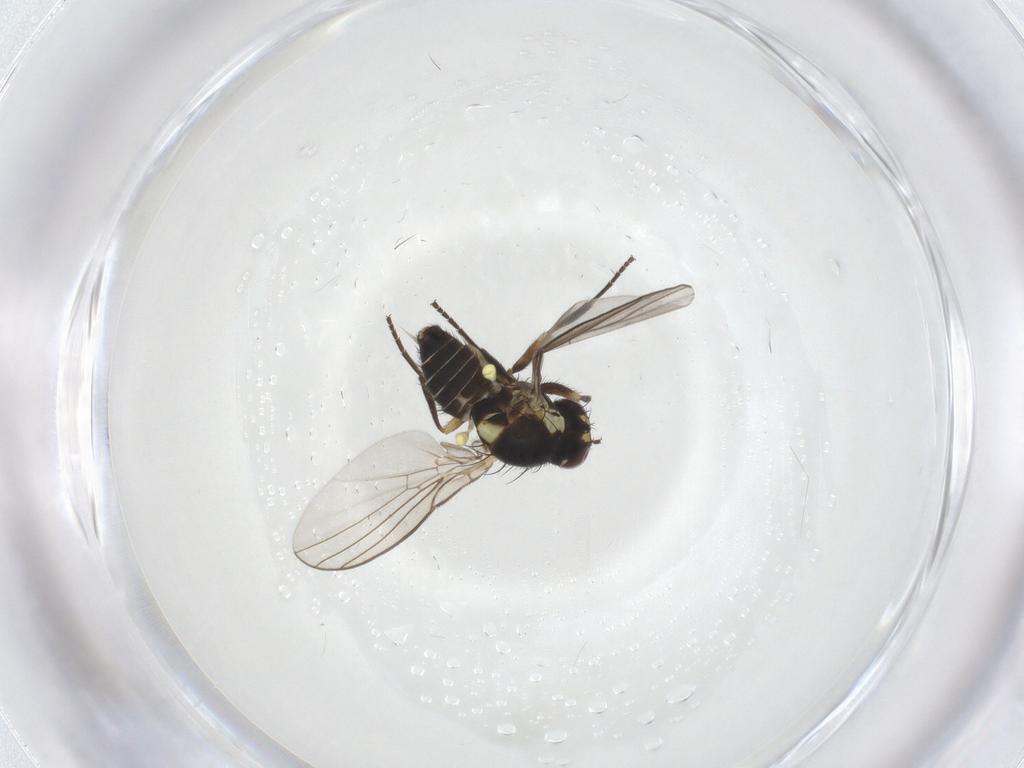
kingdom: Animalia
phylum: Arthropoda
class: Insecta
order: Diptera
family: Agromyzidae
